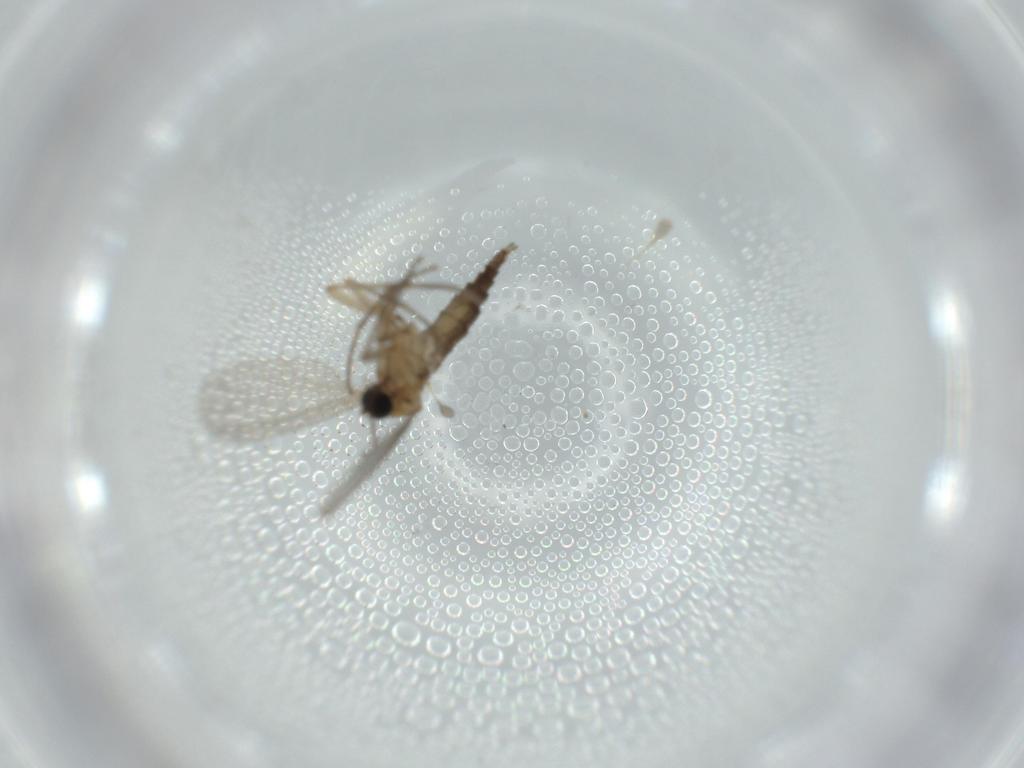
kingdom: Animalia
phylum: Arthropoda
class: Insecta
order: Diptera
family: Sciaridae
